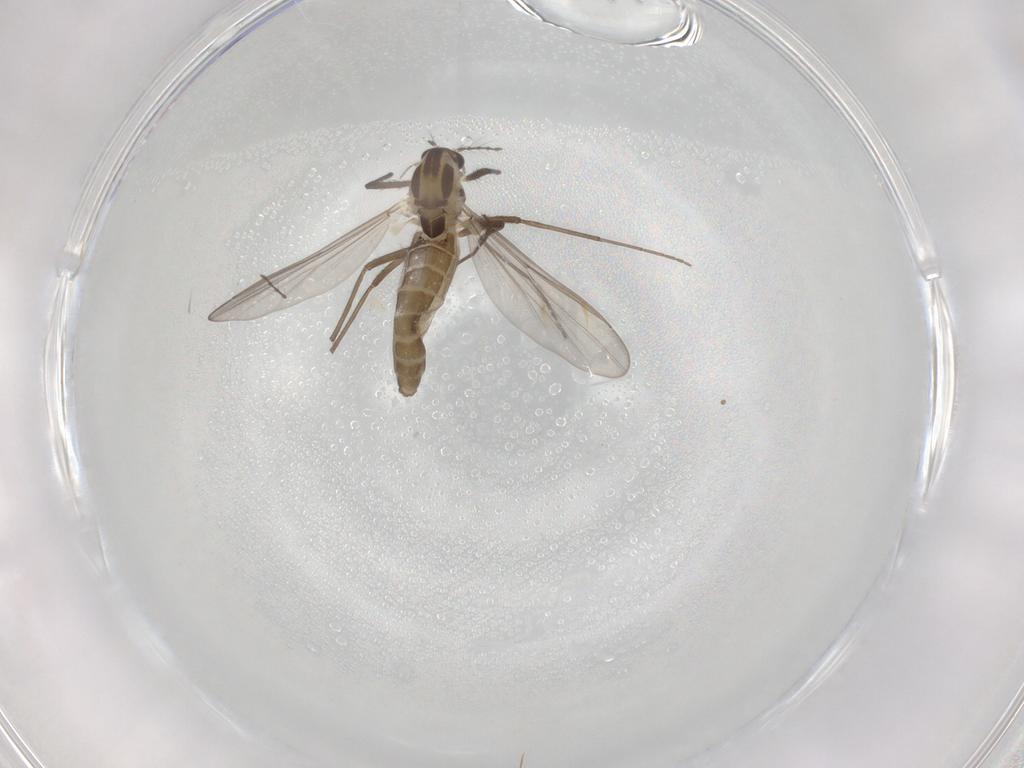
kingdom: Animalia
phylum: Arthropoda
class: Insecta
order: Diptera
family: Chironomidae
